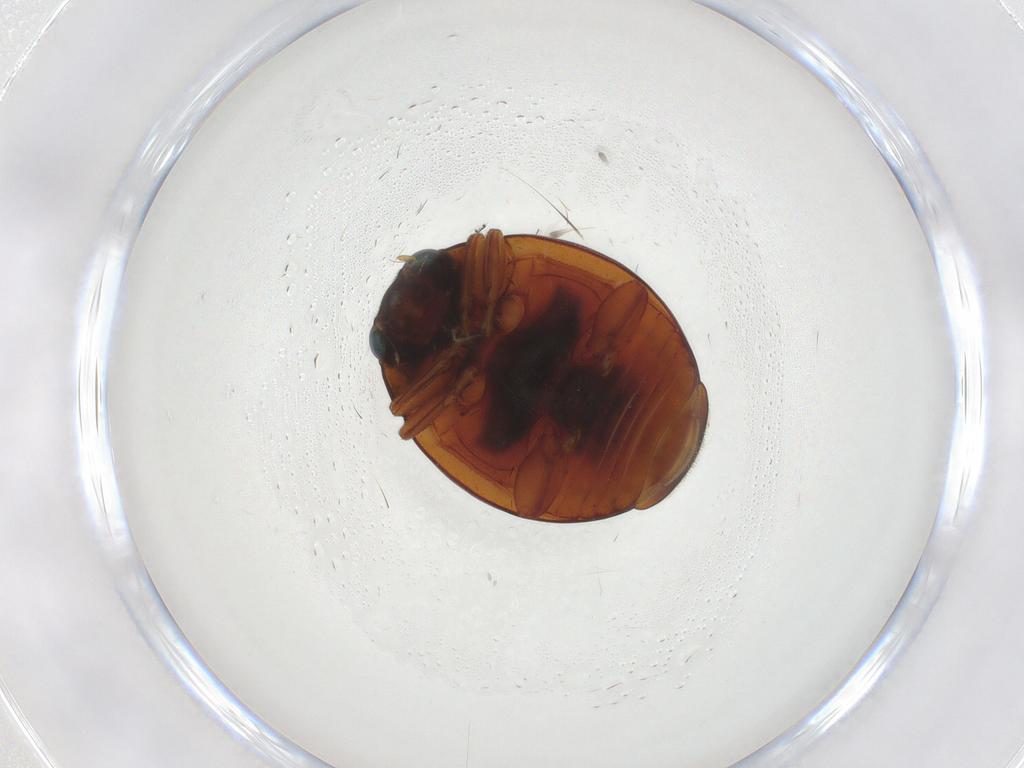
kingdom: Animalia
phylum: Arthropoda
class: Insecta
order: Coleoptera
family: Coccinellidae
